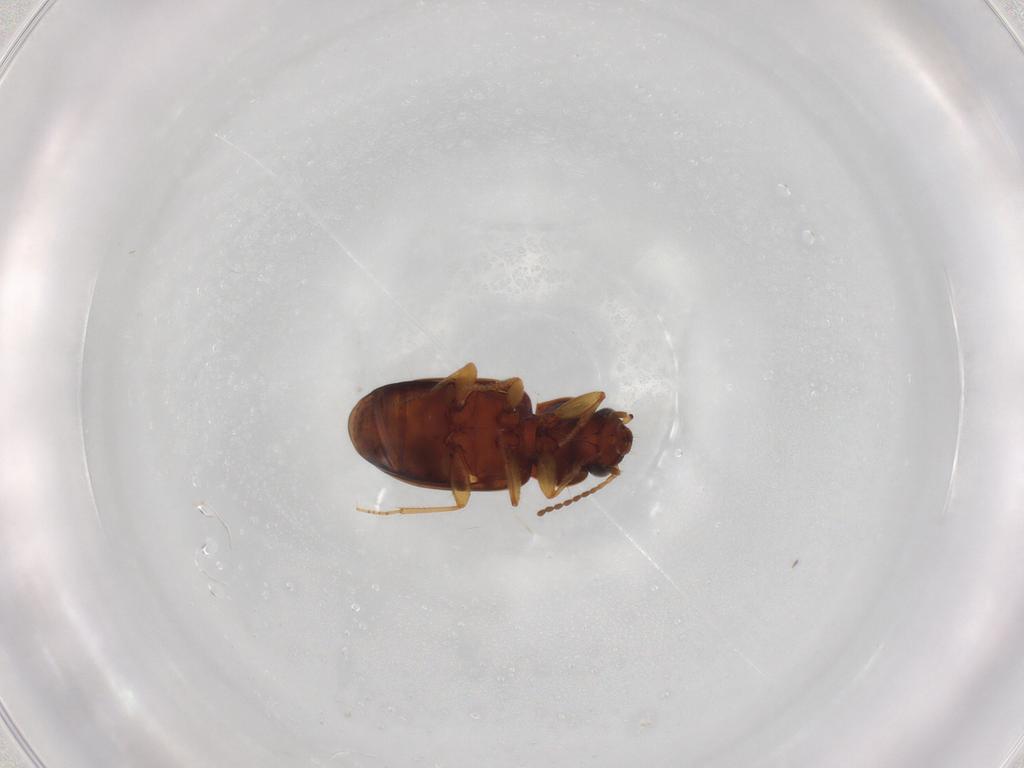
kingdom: Animalia
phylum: Arthropoda
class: Insecta
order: Coleoptera
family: Carabidae
